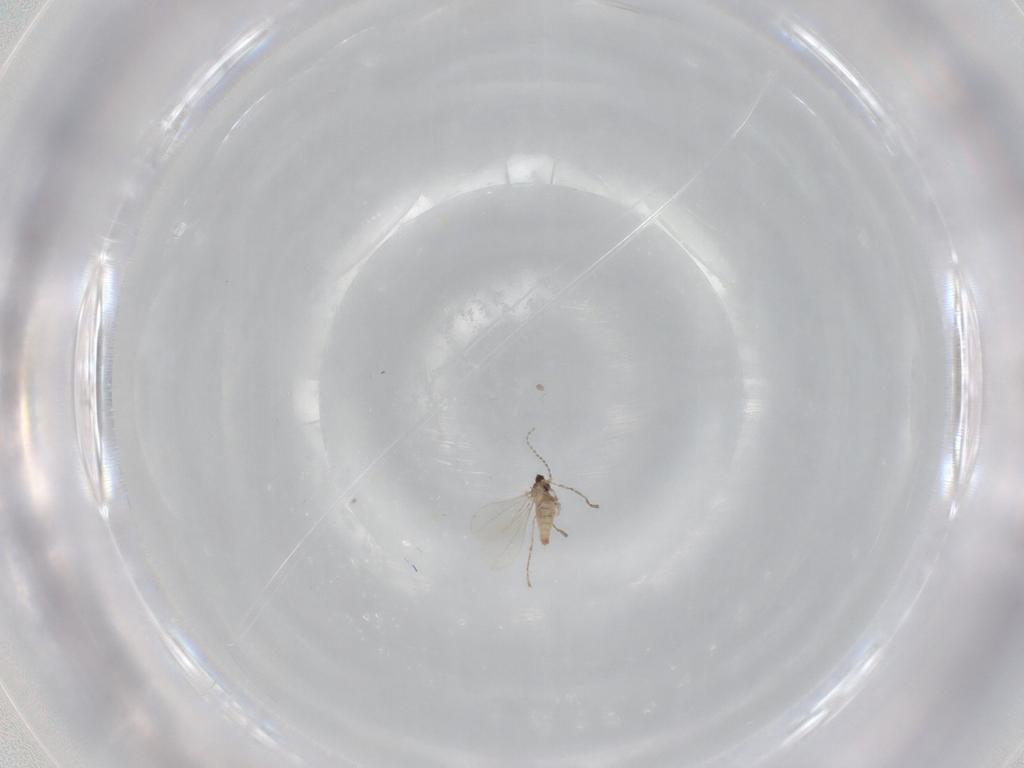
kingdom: Animalia
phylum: Arthropoda
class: Insecta
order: Diptera
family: Cecidomyiidae
